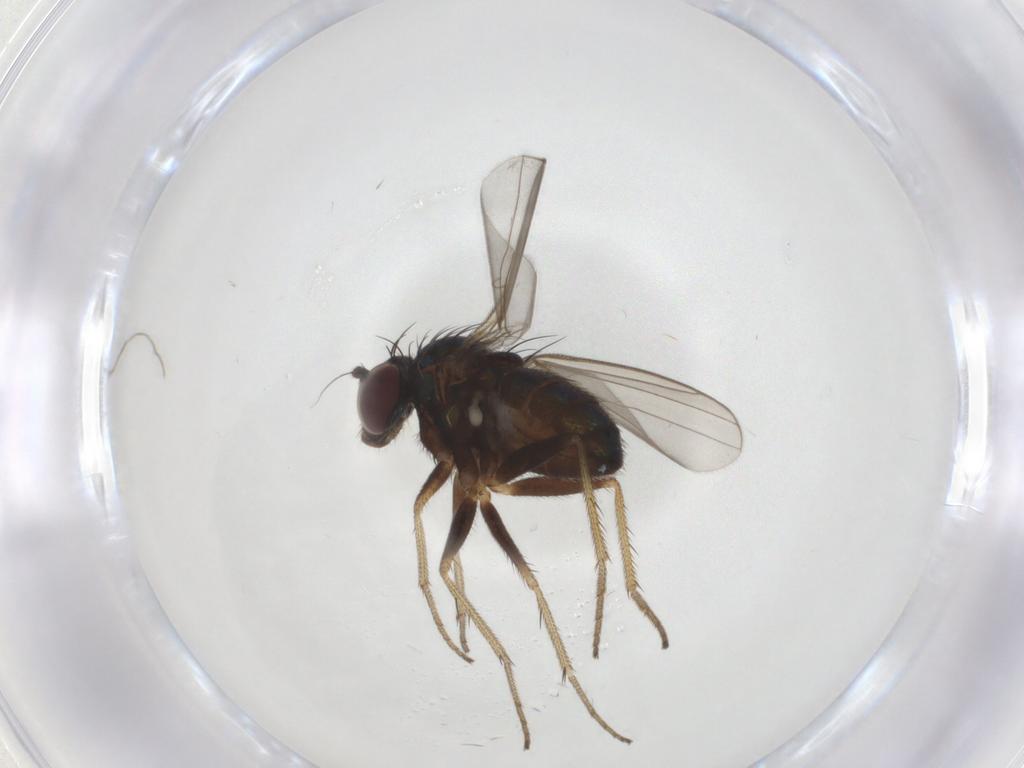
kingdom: Animalia
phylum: Arthropoda
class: Insecta
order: Diptera
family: Dolichopodidae
